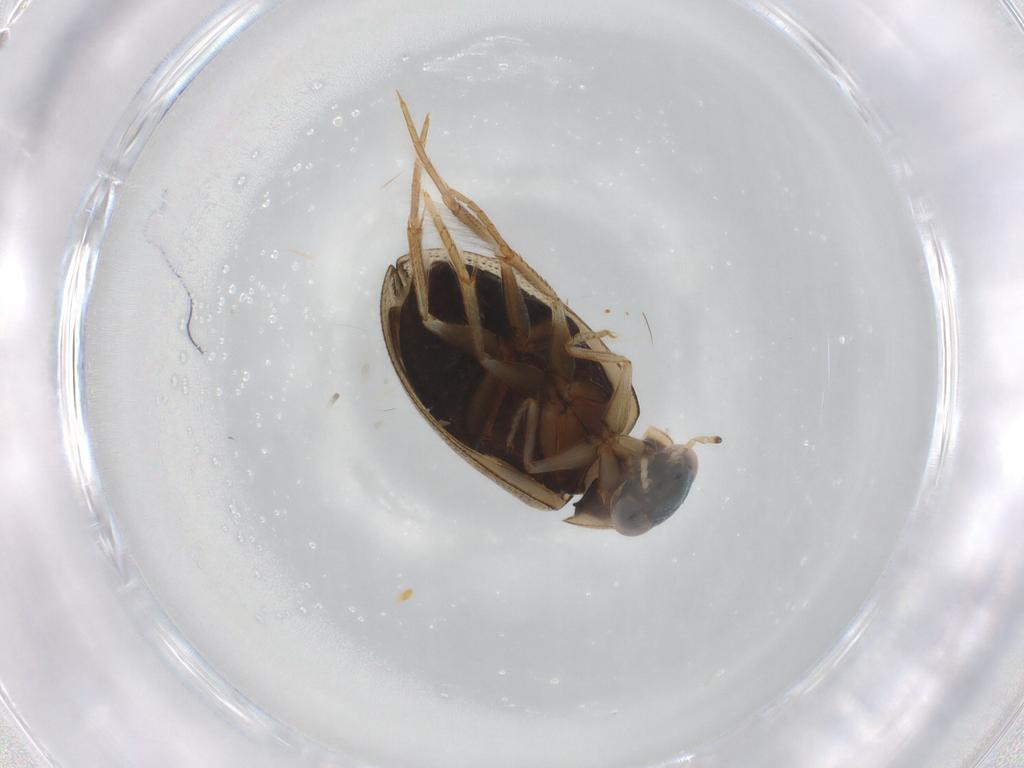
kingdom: Animalia
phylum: Arthropoda
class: Insecta
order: Coleoptera
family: Hydrophilidae
